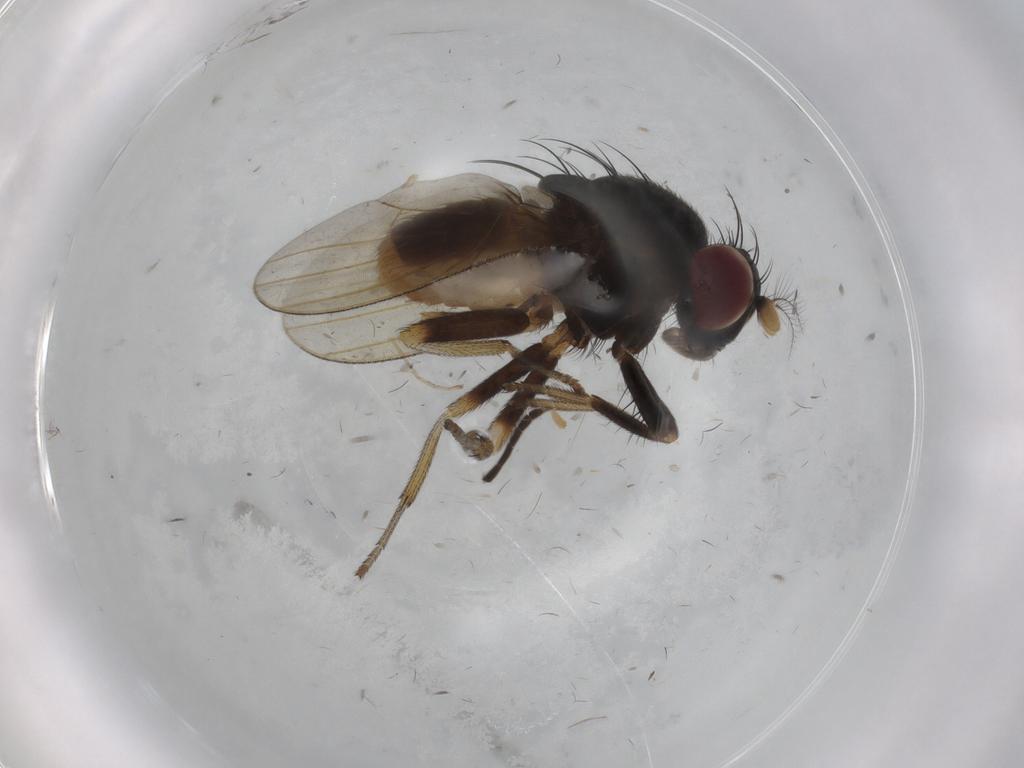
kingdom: Animalia
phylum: Arthropoda
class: Insecta
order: Diptera
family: Lauxaniidae
